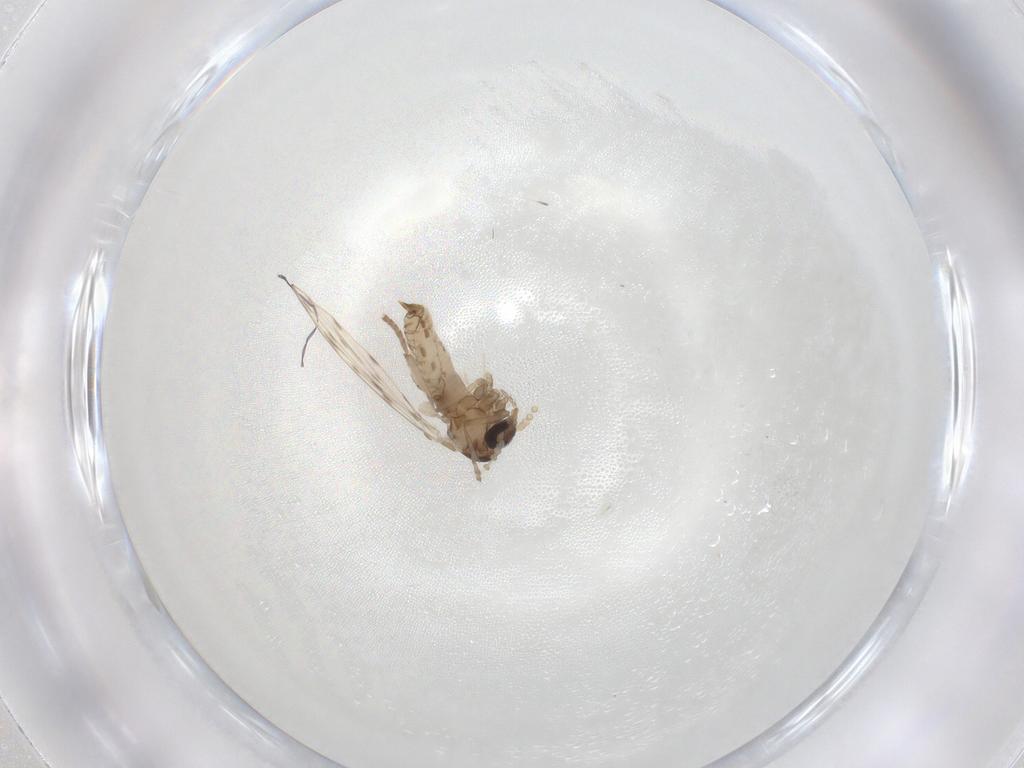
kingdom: Animalia
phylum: Arthropoda
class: Insecta
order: Diptera
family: Psychodidae
